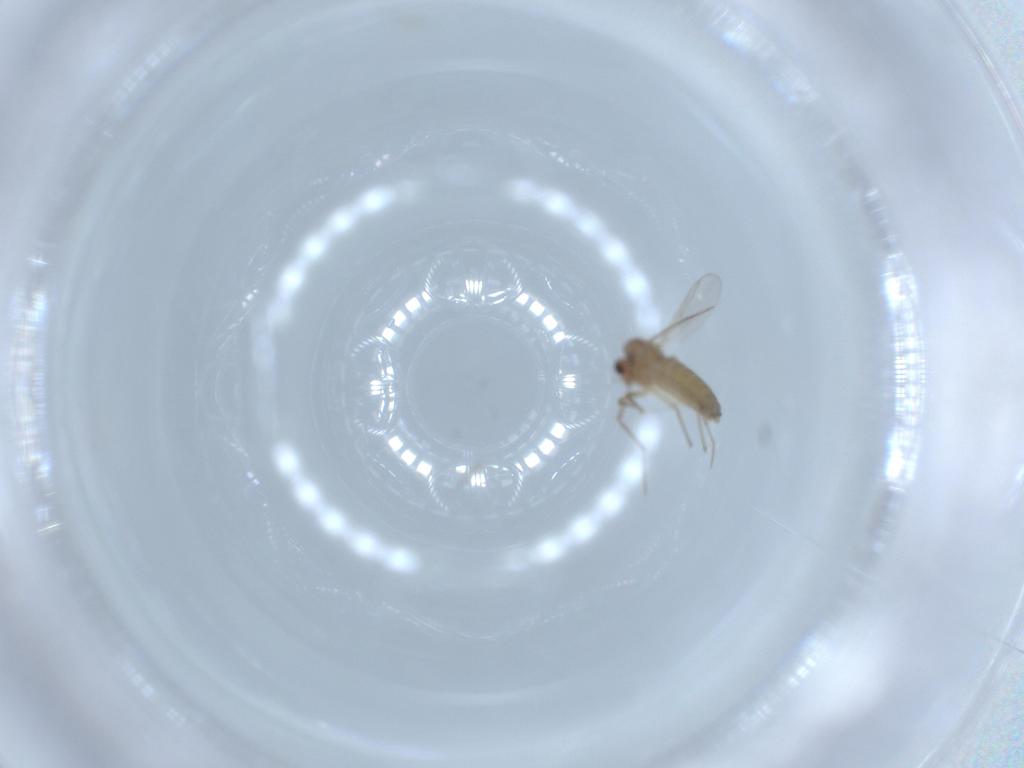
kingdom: Animalia
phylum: Arthropoda
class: Insecta
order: Diptera
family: Chironomidae
